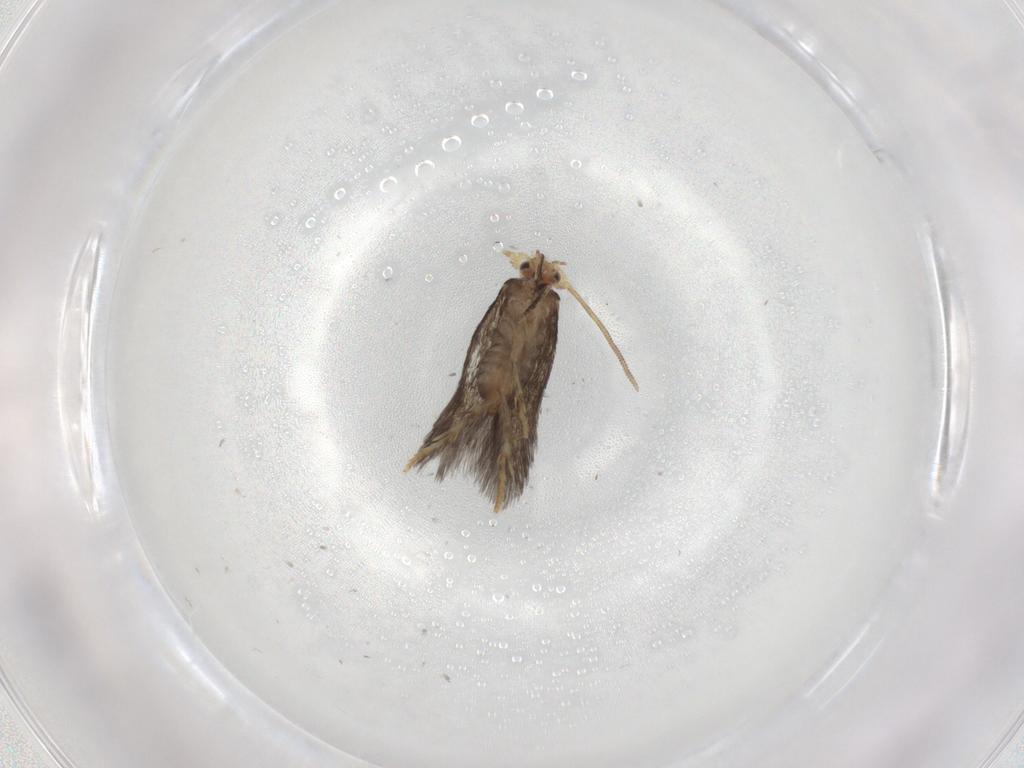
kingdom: Animalia
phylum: Arthropoda
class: Insecta
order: Lepidoptera
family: Nepticulidae
